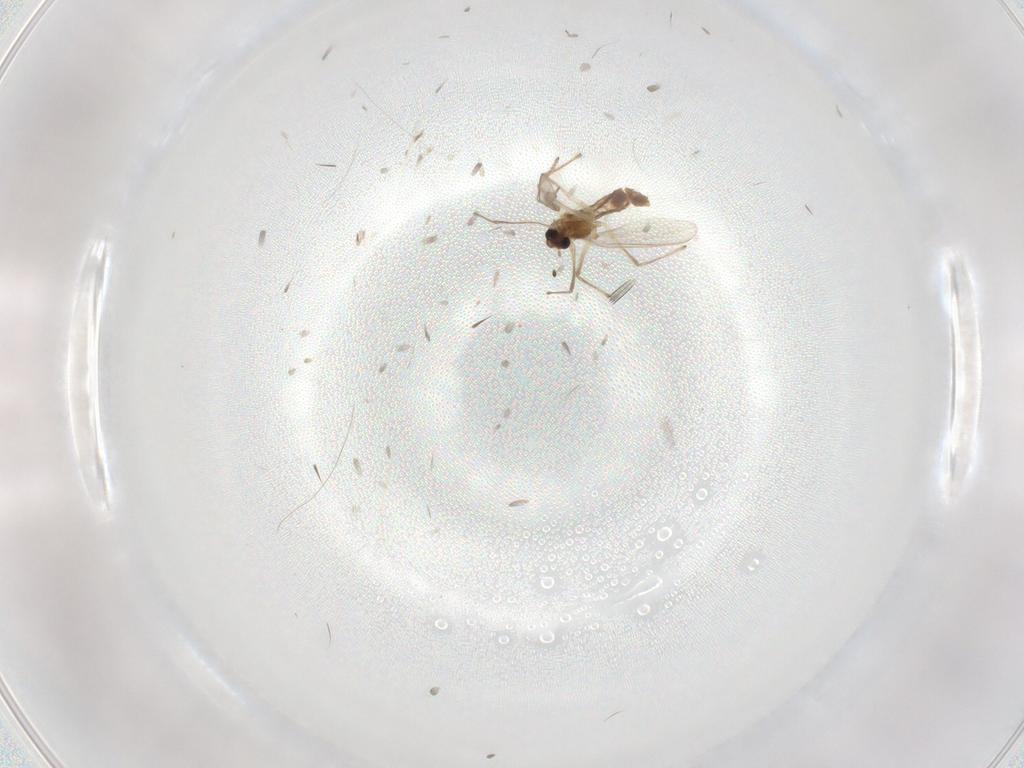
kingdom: Animalia
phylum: Arthropoda
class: Insecta
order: Diptera
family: Chironomidae
